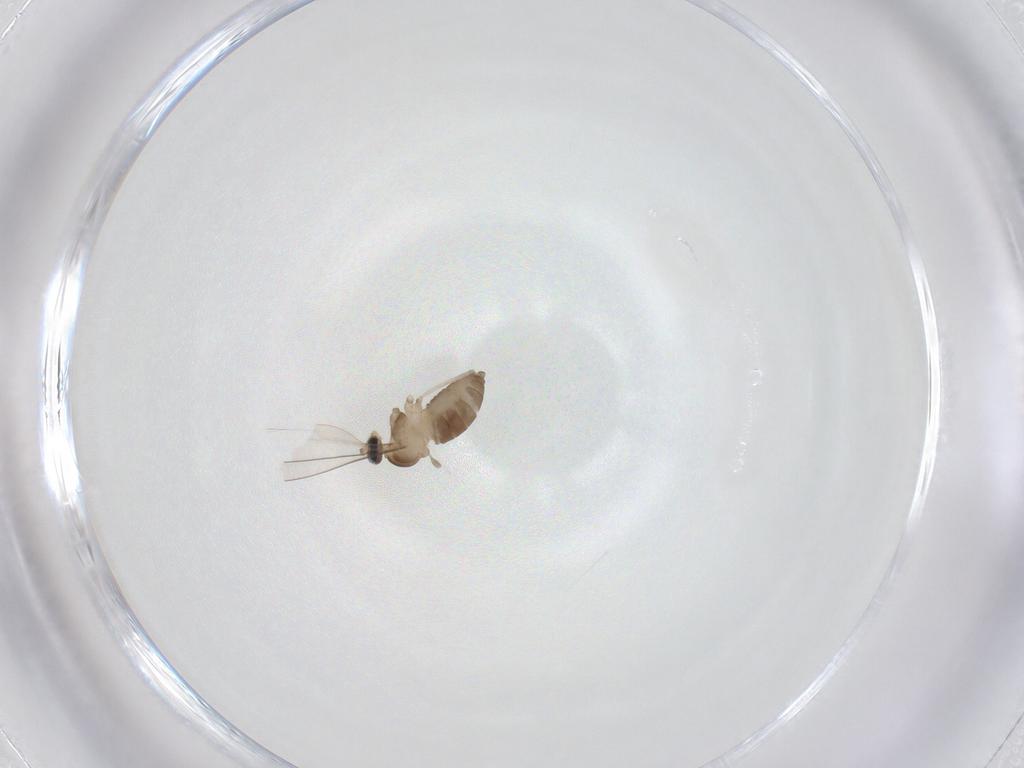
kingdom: Animalia
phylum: Arthropoda
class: Insecta
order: Diptera
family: Cecidomyiidae
